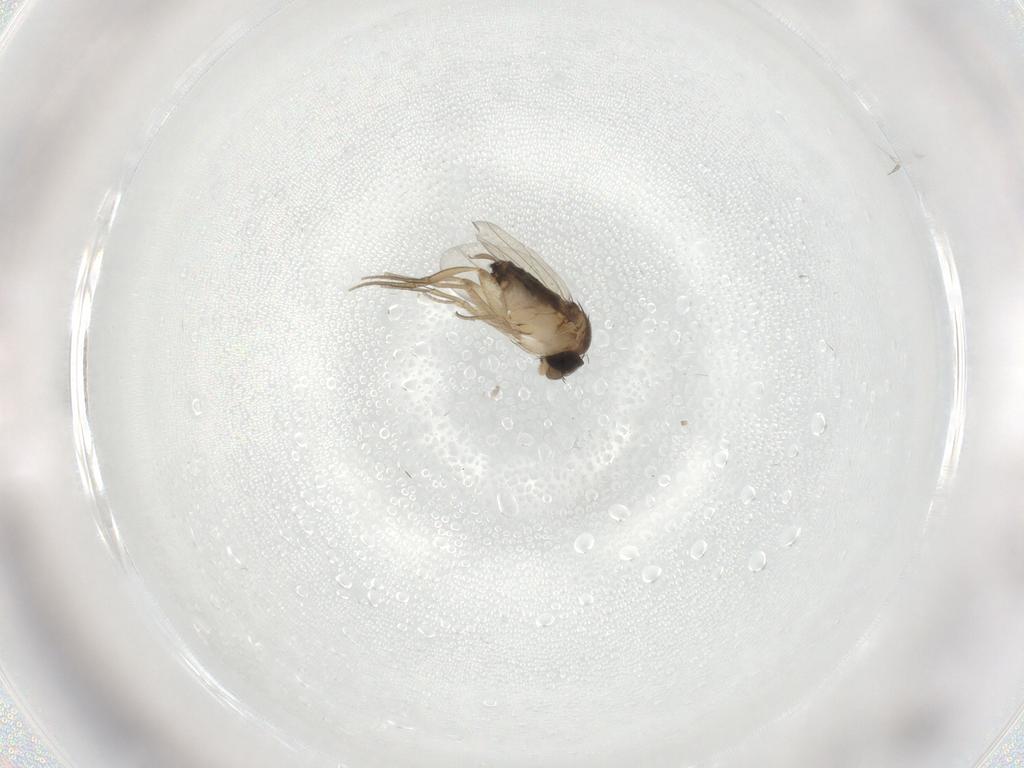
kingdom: Animalia
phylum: Arthropoda
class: Insecta
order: Diptera
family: Chironomidae
